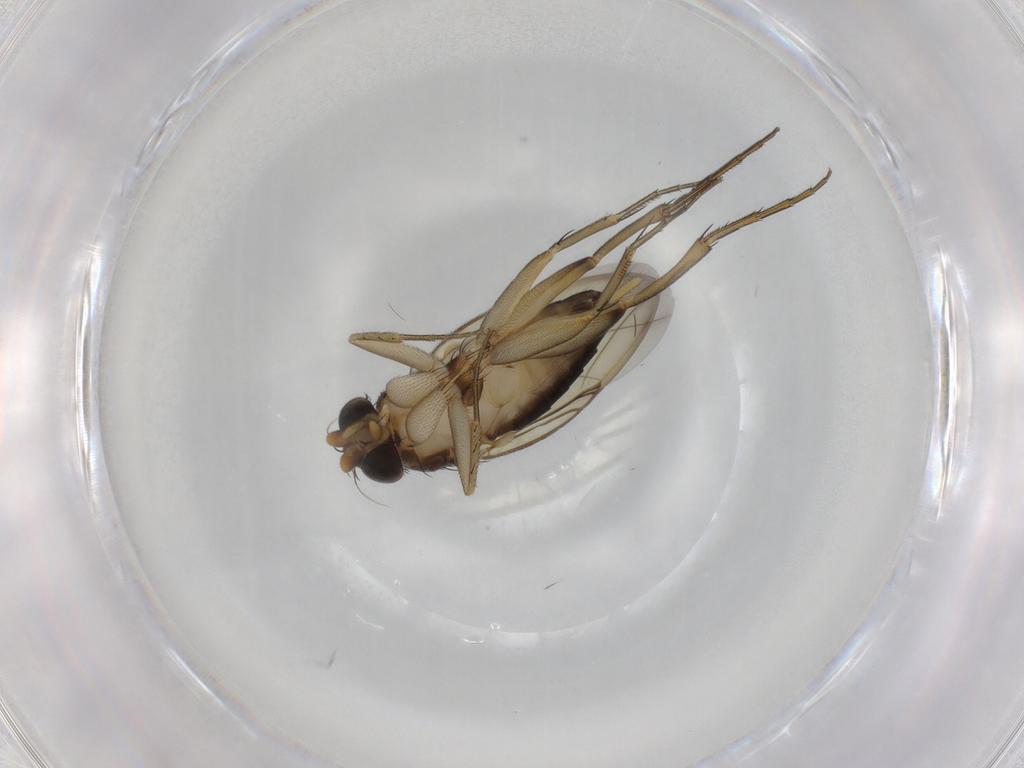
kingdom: Animalia
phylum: Arthropoda
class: Insecta
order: Diptera
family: Phoridae
